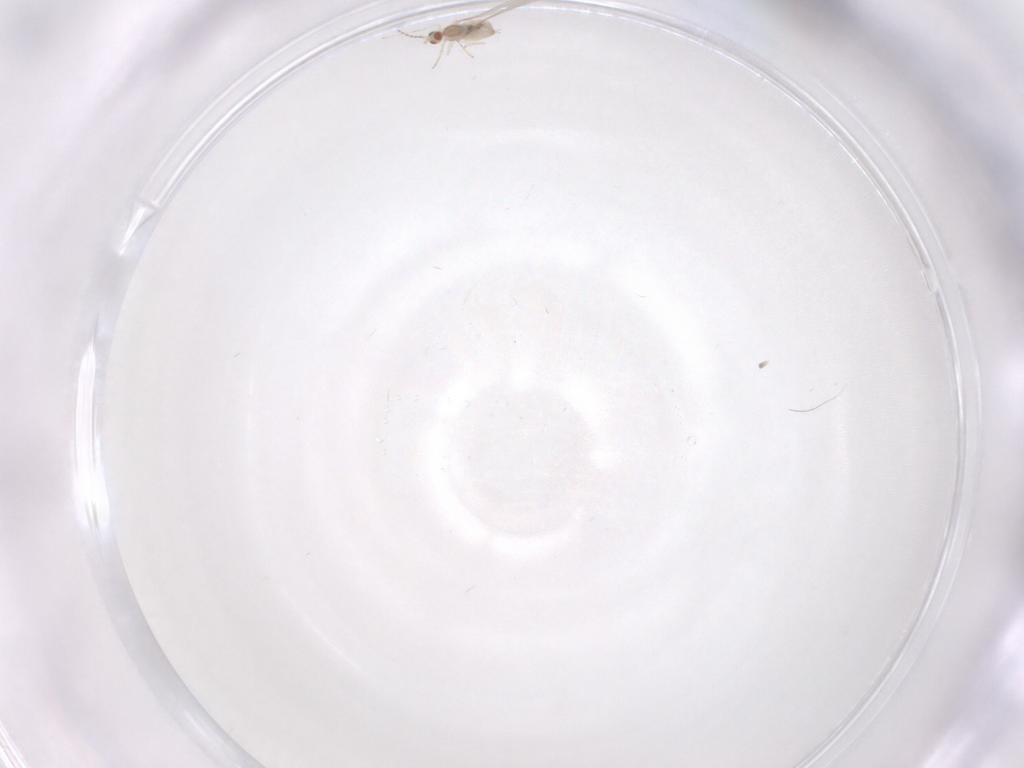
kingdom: Animalia
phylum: Arthropoda
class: Insecta
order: Diptera
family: Cecidomyiidae
